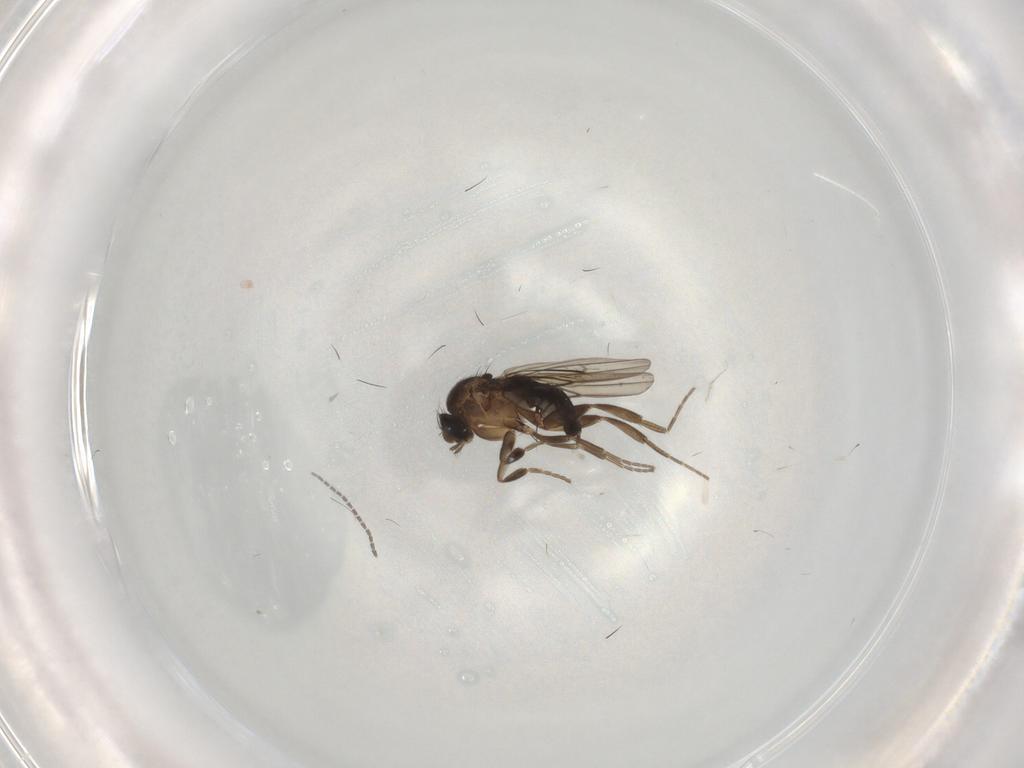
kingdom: Animalia
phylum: Arthropoda
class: Insecta
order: Diptera
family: Phoridae
